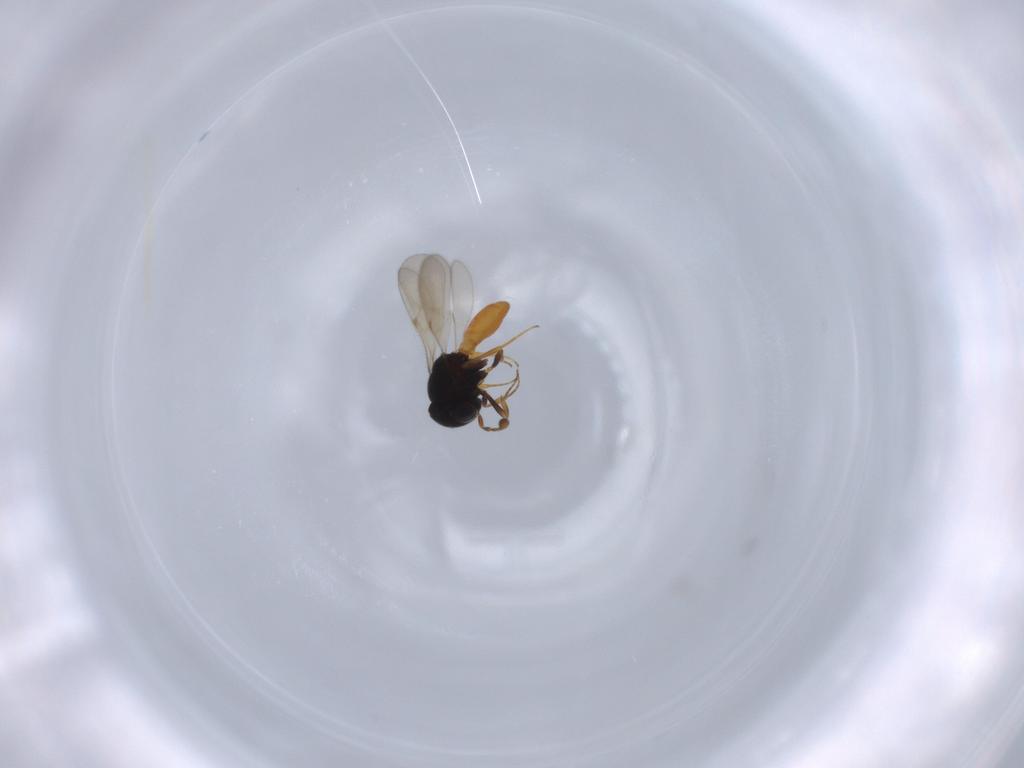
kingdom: Animalia
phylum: Arthropoda
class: Insecta
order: Hymenoptera
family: Scelionidae
